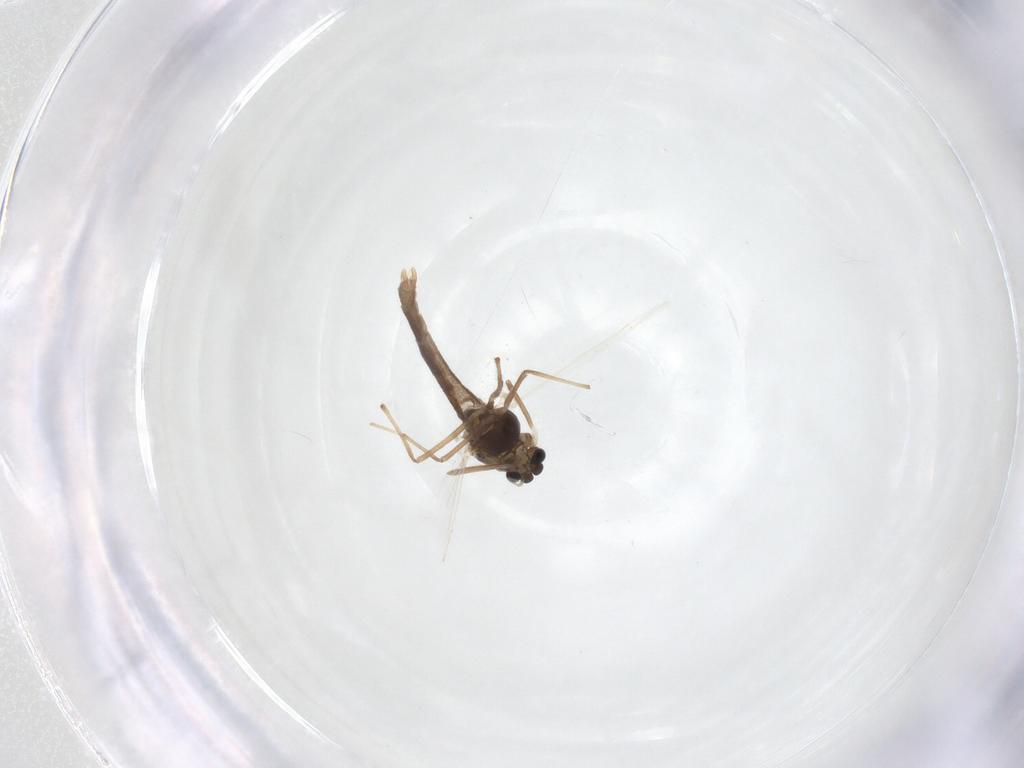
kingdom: Animalia
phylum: Arthropoda
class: Insecta
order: Diptera
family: Chironomidae
